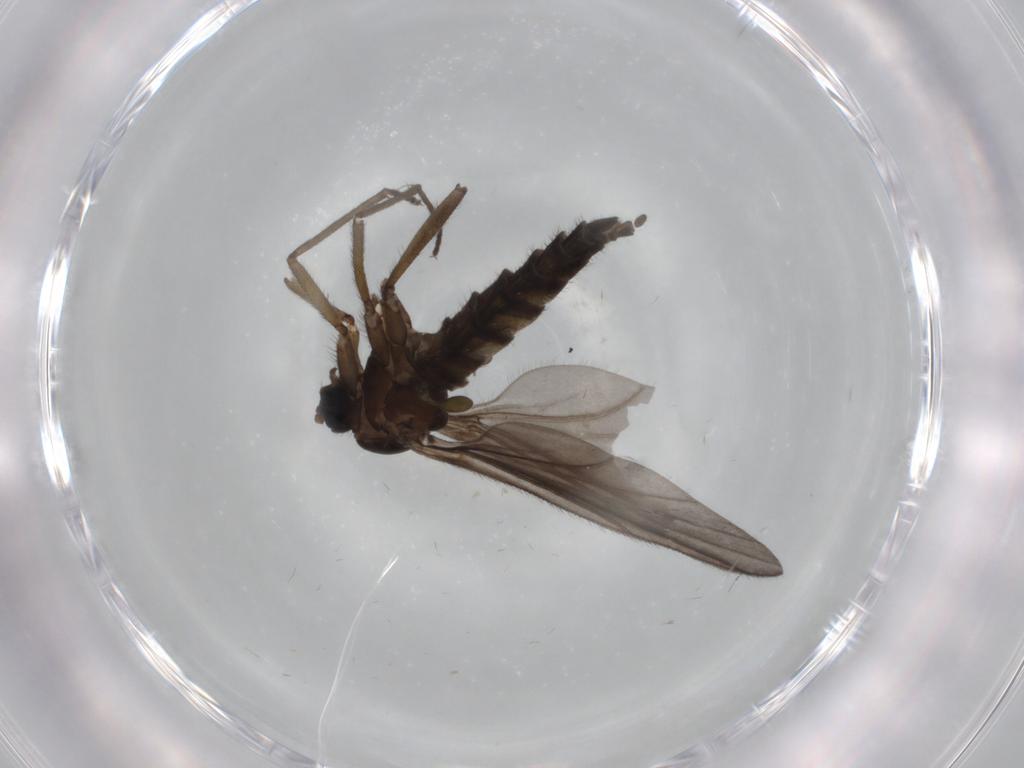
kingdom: Animalia
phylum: Arthropoda
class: Insecta
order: Diptera
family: Sciaridae
